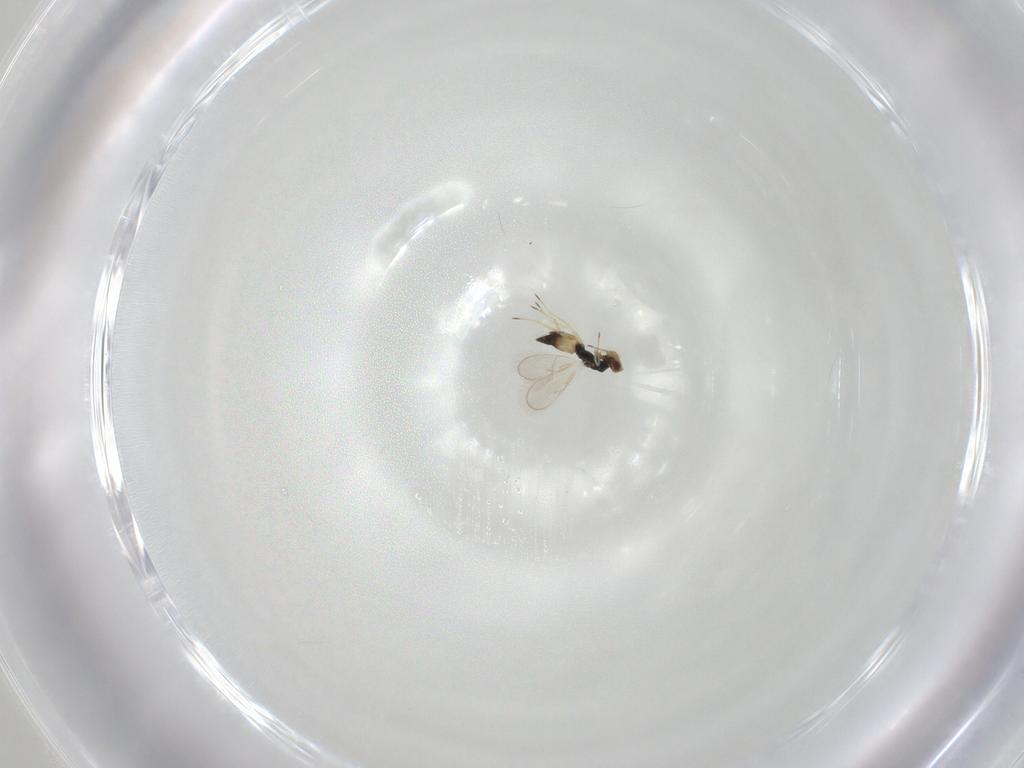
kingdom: Animalia
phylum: Arthropoda
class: Insecta
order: Hymenoptera
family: Eulophidae
